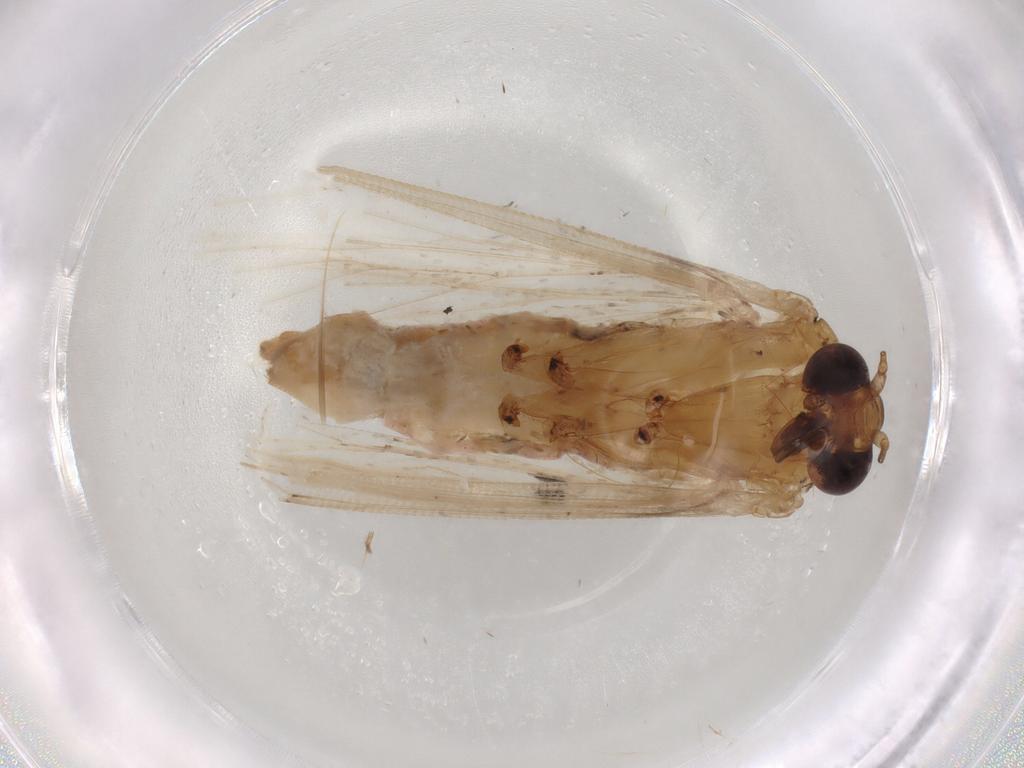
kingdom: Animalia
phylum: Arthropoda
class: Insecta
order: Lepidoptera
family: Erebidae
